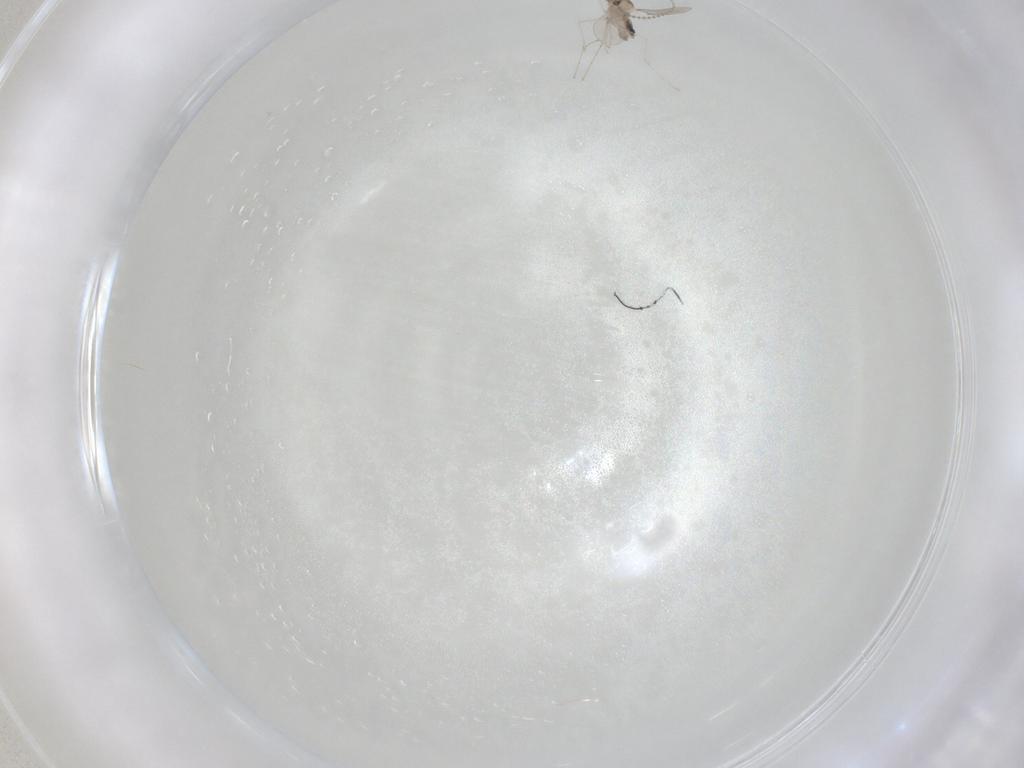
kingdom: Animalia
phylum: Arthropoda
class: Insecta
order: Diptera
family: Cecidomyiidae
